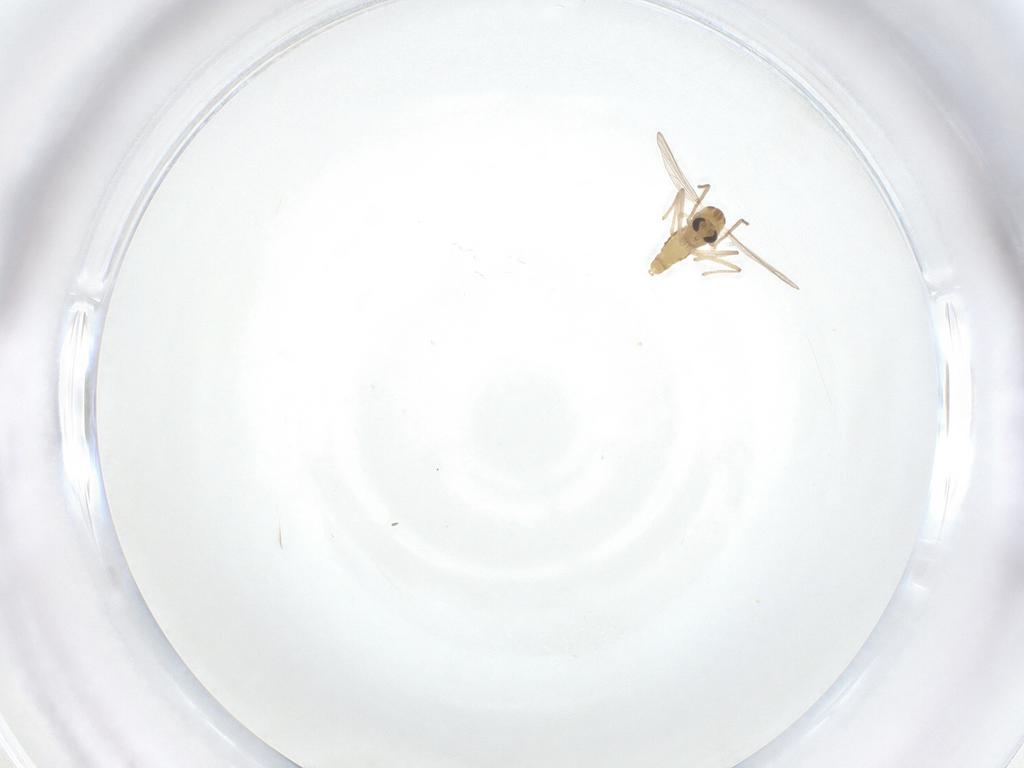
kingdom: Animalia
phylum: Arthropoda
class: Insecta
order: Diptera
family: Chironomidae
